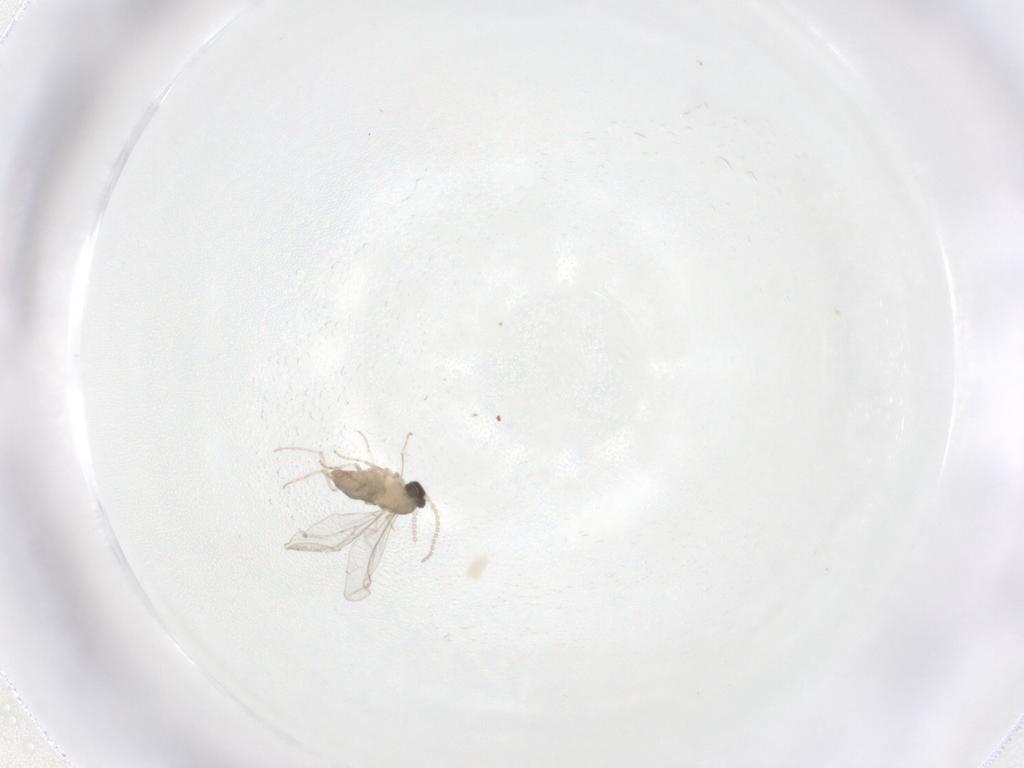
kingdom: Animalia
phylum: Arthropoda
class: Insecta
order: Diptera
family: Cecidomyiidae
